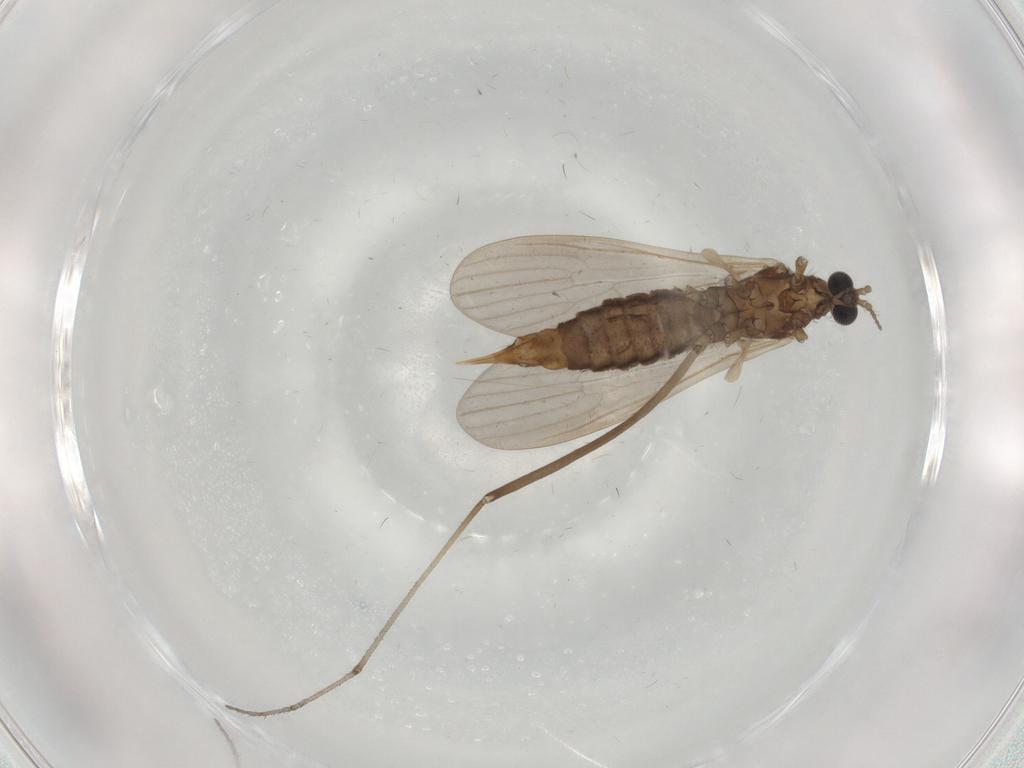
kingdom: Animalia
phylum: Arthropoda
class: Insecta
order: Diptera
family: Limoniidae
